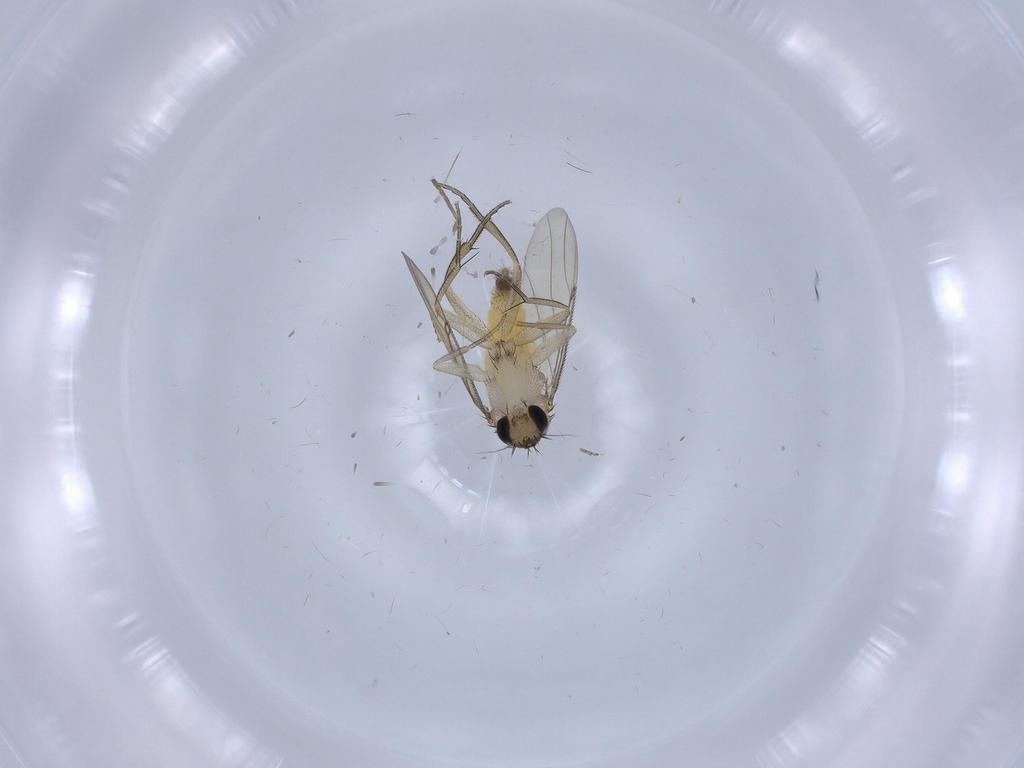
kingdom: Animalia
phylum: Arthropoda
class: Insecta
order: Diptera
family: Phoridae
